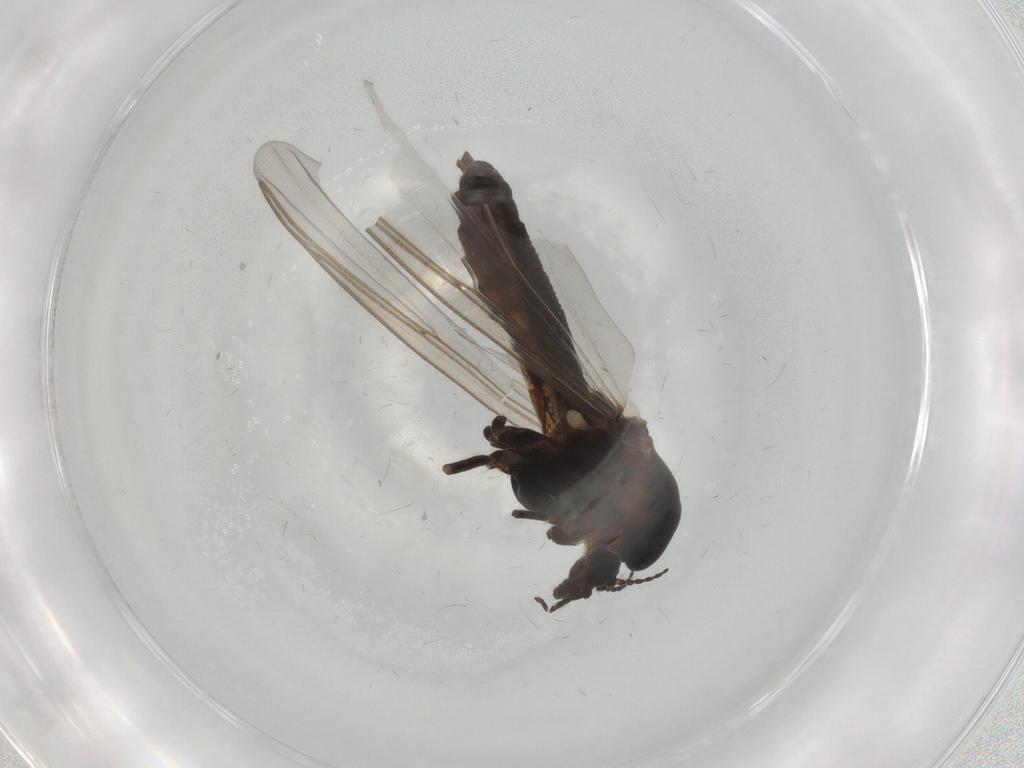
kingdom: Animalia
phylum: Arthropoda
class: Insecta
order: Diptera
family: Chironomidae
